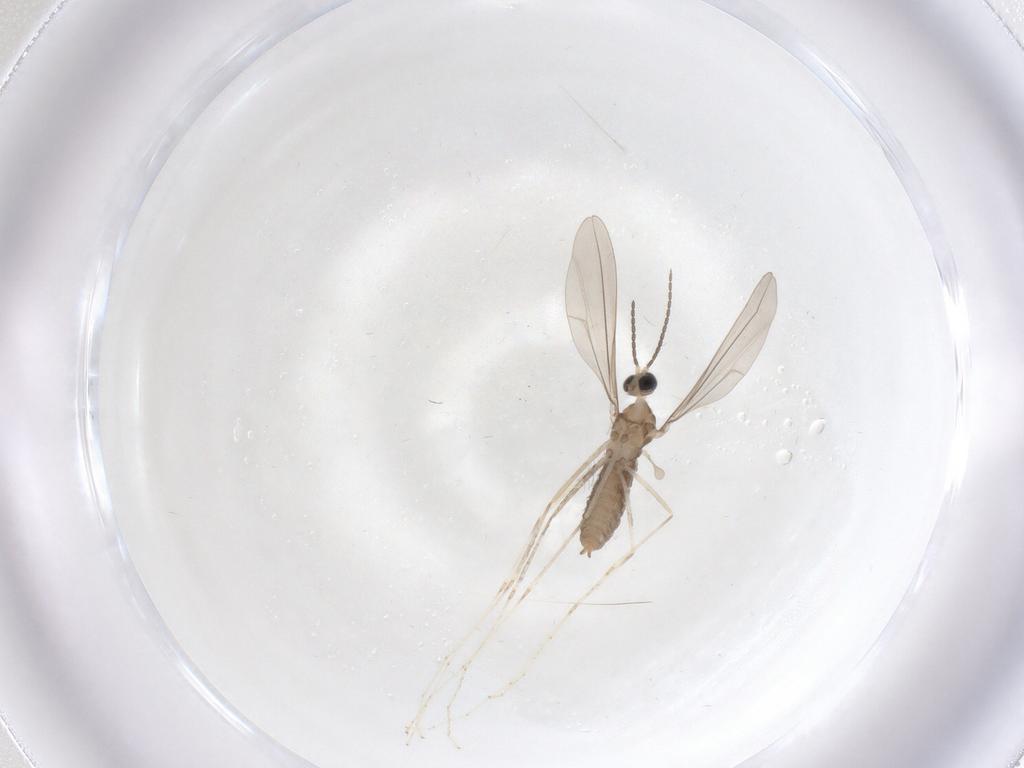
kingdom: Animalia
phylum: Arthropoda
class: Insecta
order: Diptera
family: Cecidomyiidae
